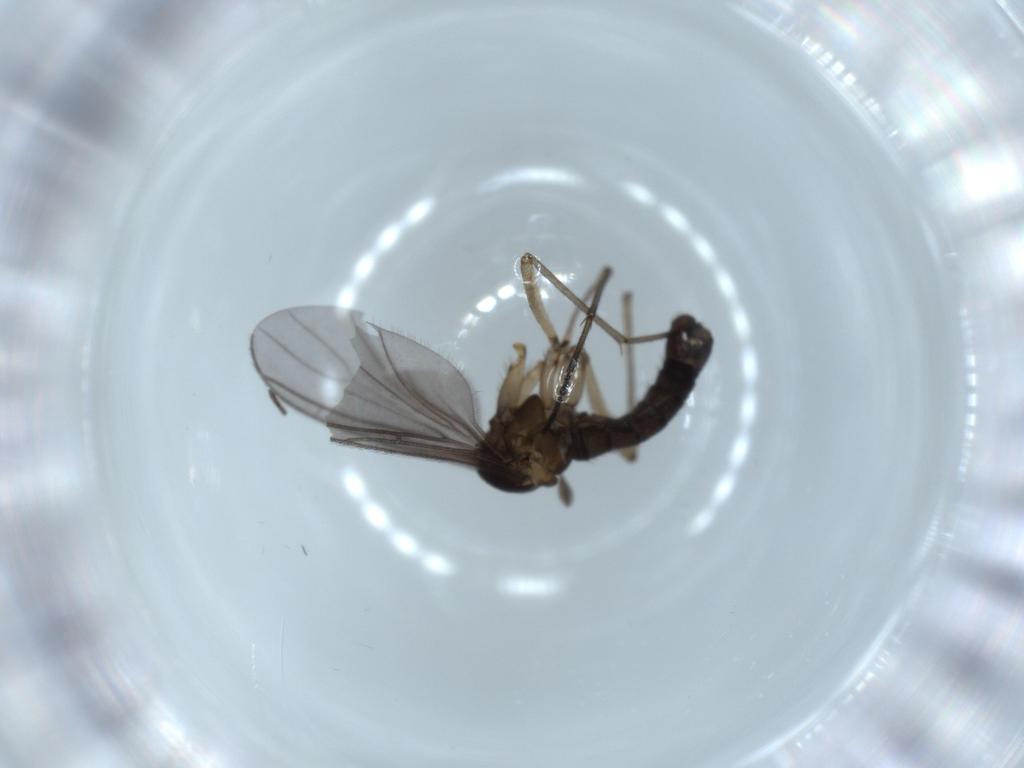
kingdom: Animalia
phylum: Arthropoda
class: Insecta
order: Diptera
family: Sciaridae
